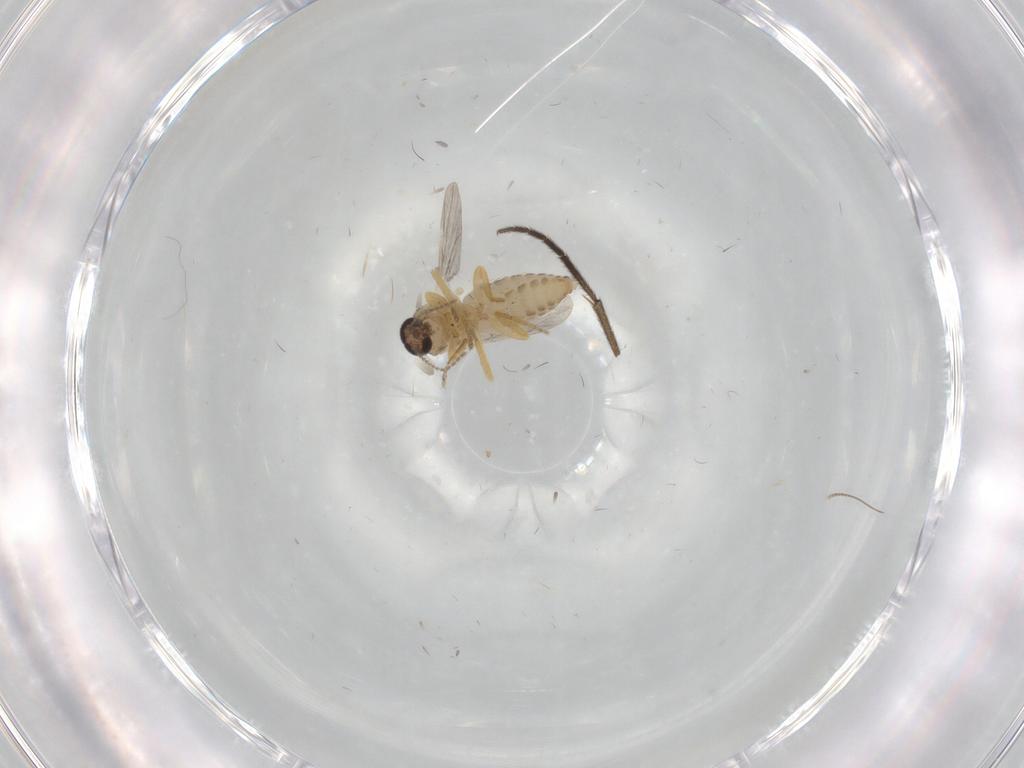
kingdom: Animalia
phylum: Arthropoda
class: Insecta
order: Diptera
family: Ceratopogonidae
